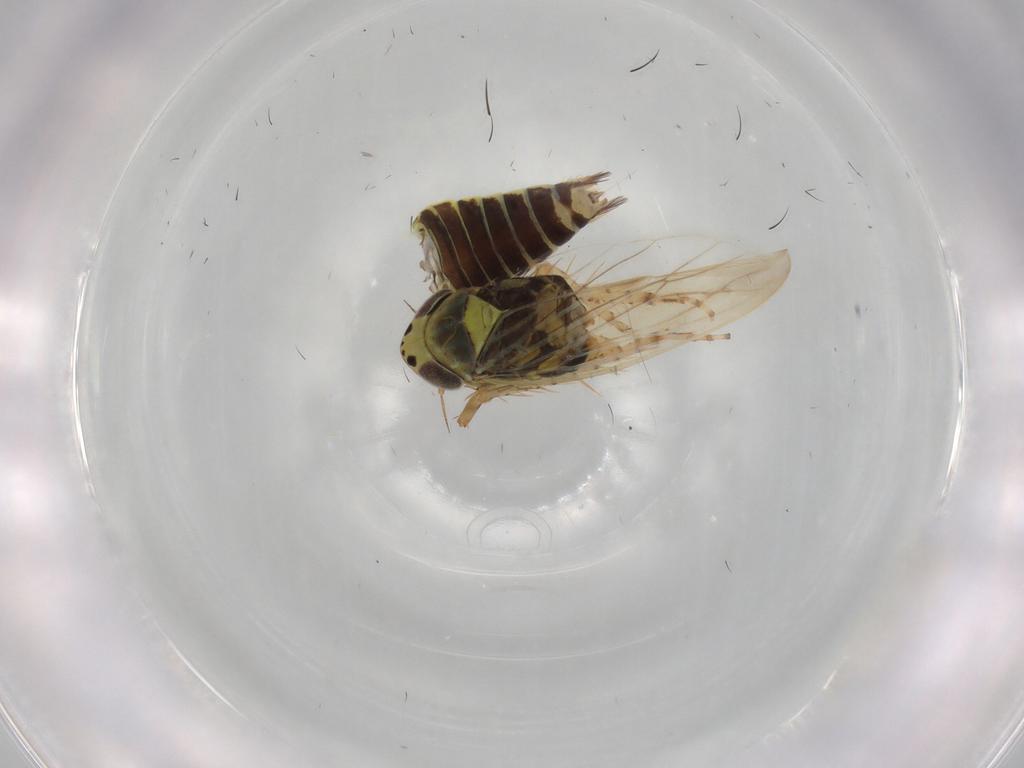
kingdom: Animalia
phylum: Arthropoda
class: Insecta
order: Hemiptera
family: Cicadellidae
